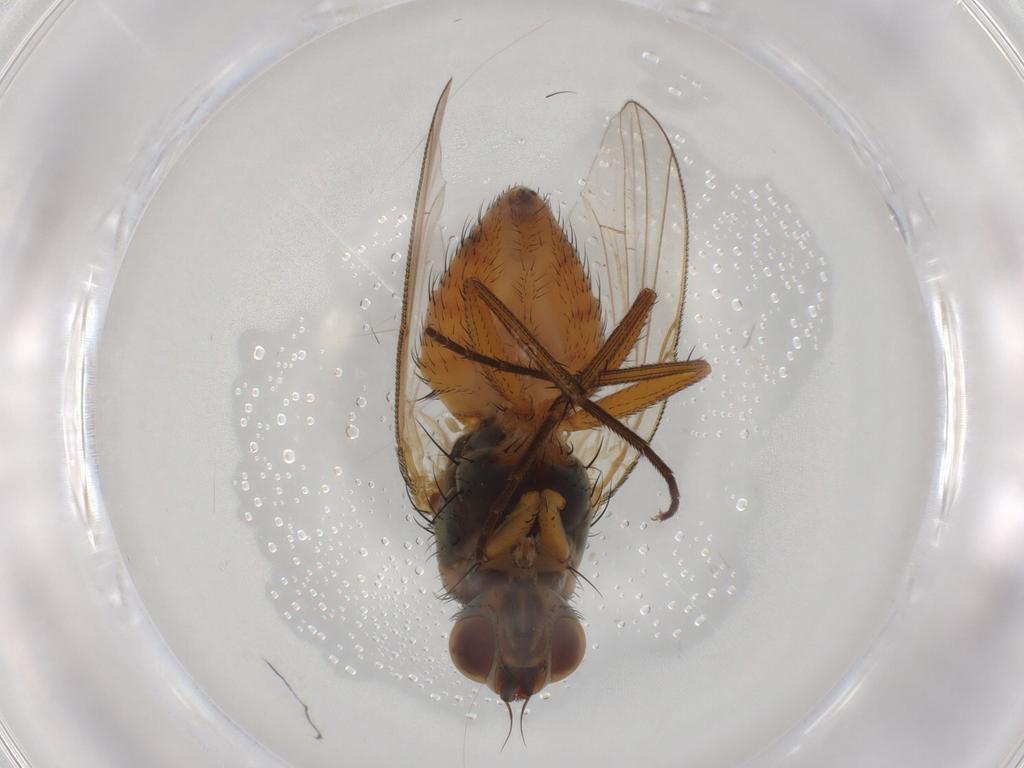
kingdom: Animalia
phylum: Arthropoda
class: Insecta
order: Diptera
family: Muscidae
